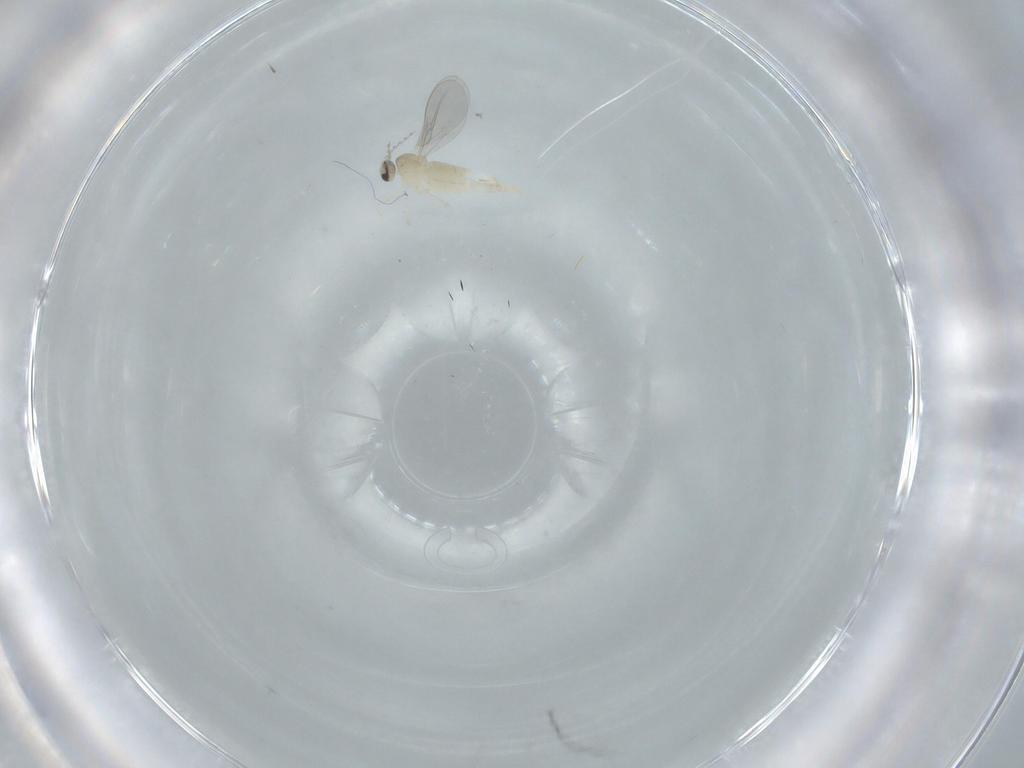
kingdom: Animalia
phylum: Arthropoda
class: Insecta
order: Diptera
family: Cecidomyiidae
